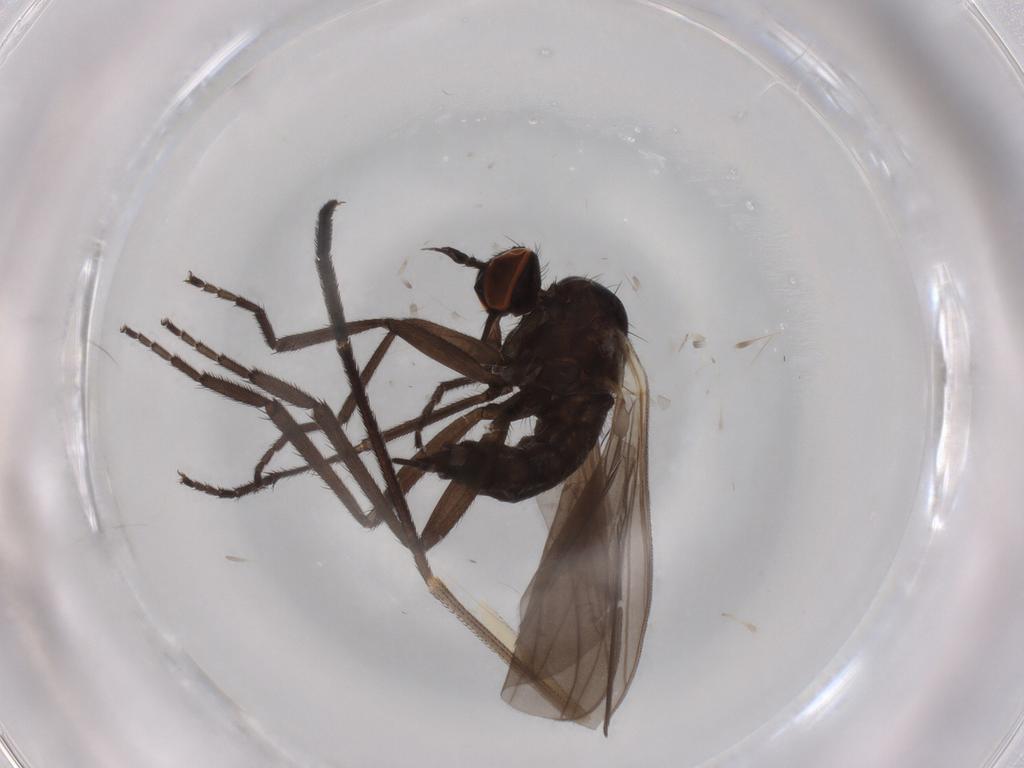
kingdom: Animalia
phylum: Arthropoda
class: Insecta
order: Diptera
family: Empididae
